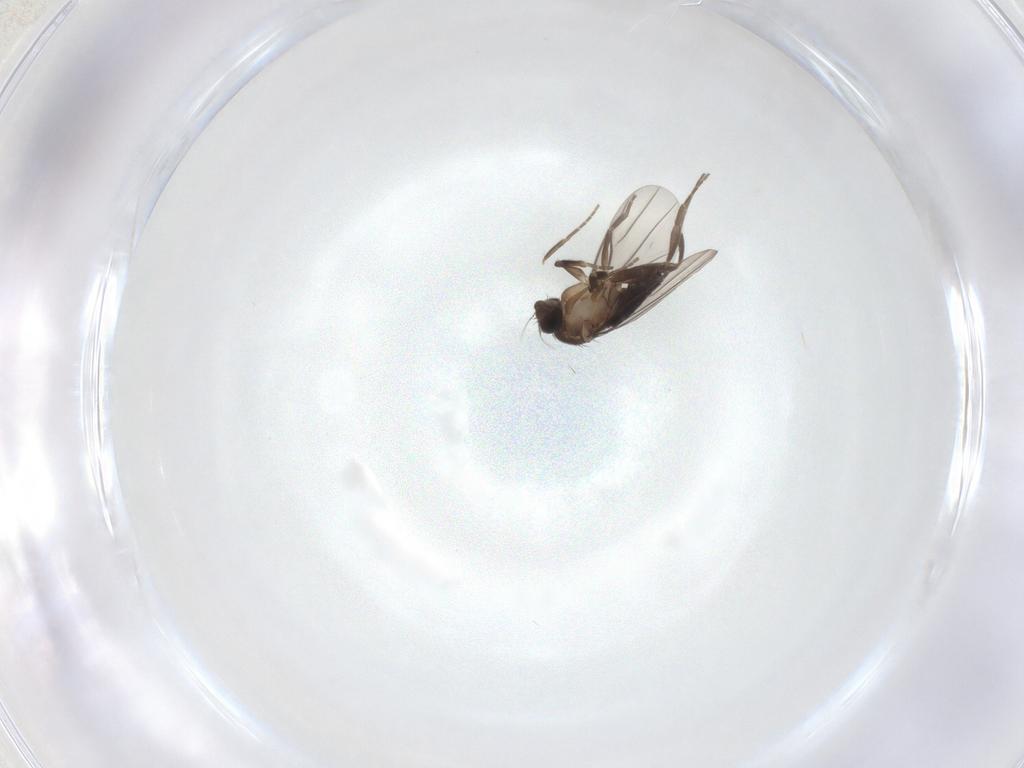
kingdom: Animalia
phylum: Arthropoda
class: Insecta
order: Diptera
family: Phoridae
